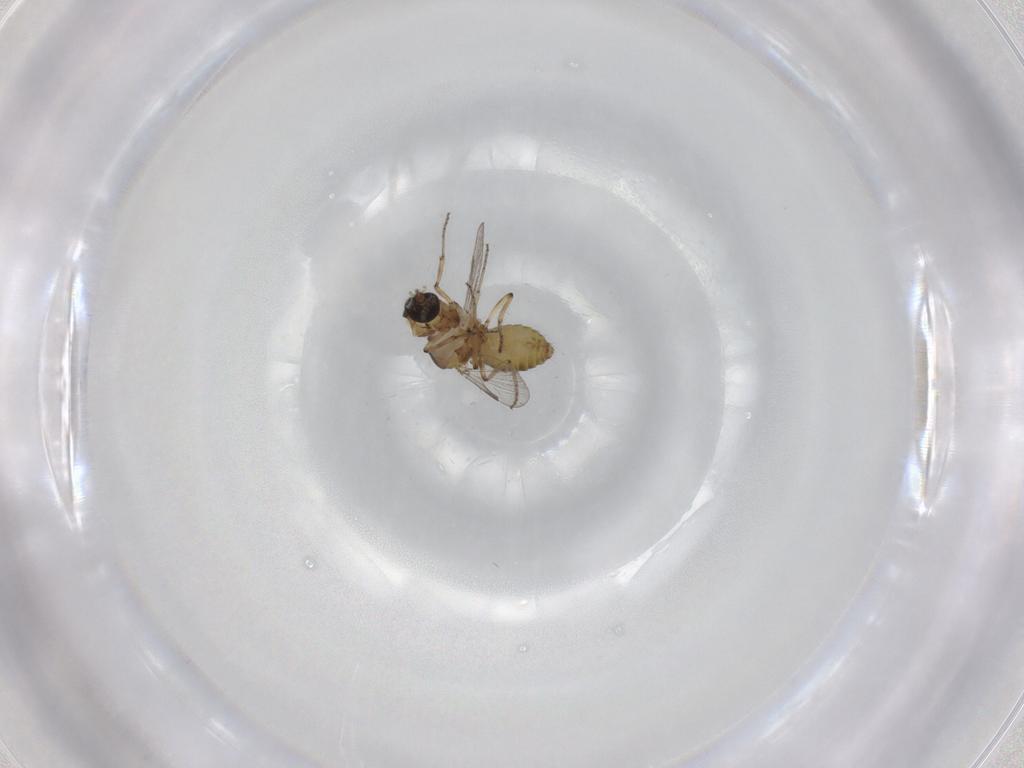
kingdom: Animalia
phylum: Arthropoda
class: Insecta
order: Diptera
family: Ceratopogonidae
